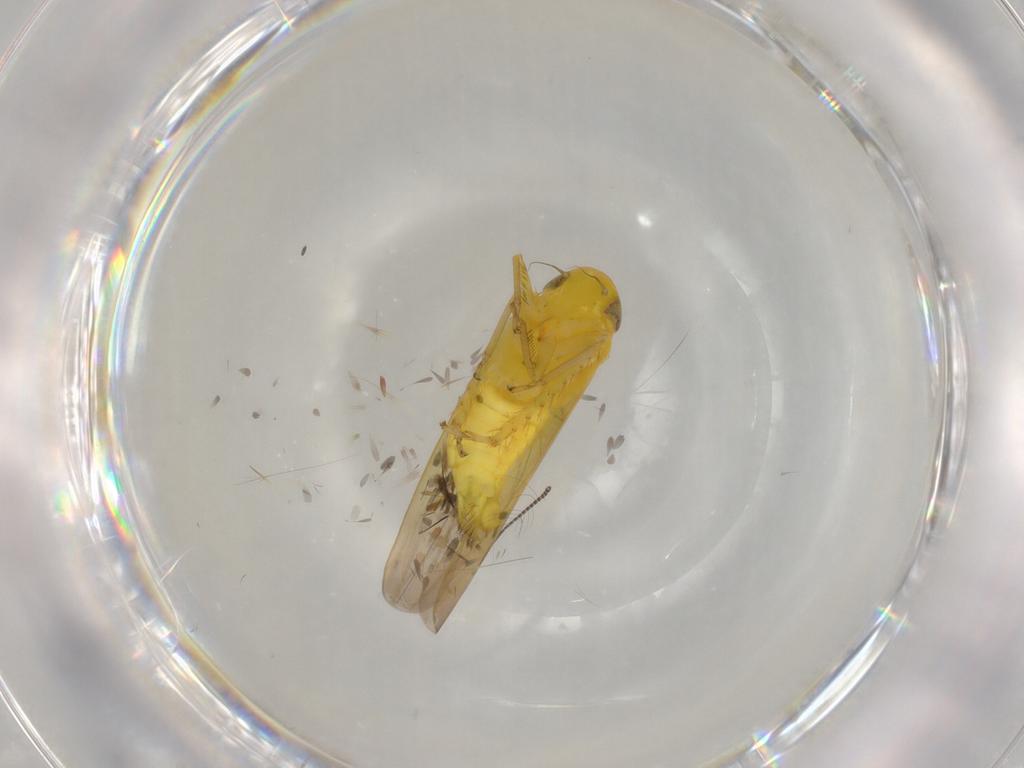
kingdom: Animalia
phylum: Arthropoda
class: Insecta
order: Hemiptera
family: Cicadellidae
